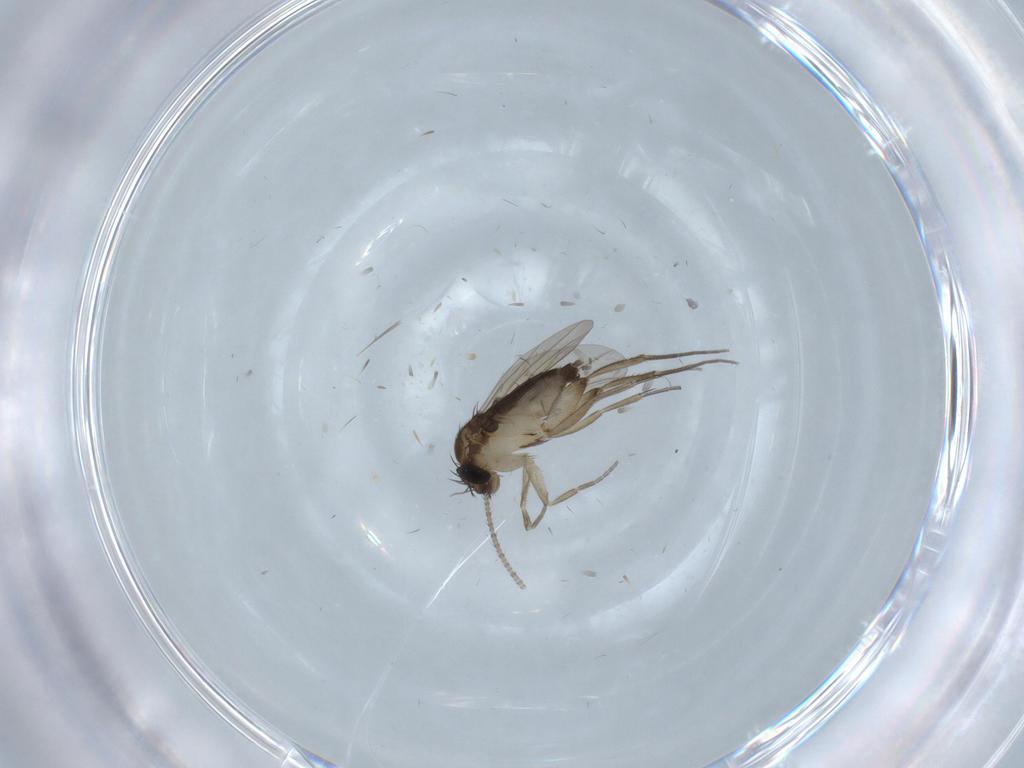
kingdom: Animalia
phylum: Arthropoda
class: Insecta
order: Diptera
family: Phoridae
